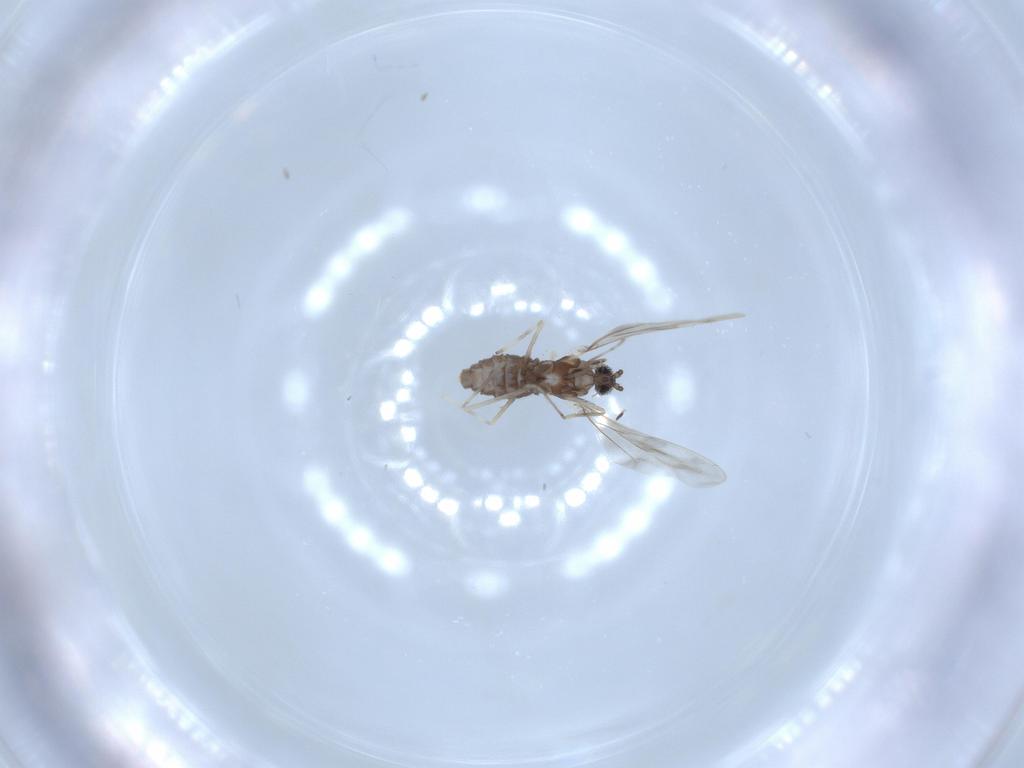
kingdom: Animalia
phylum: Arthropoda
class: Insecta
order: Diptera
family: Cecidomyiidae
